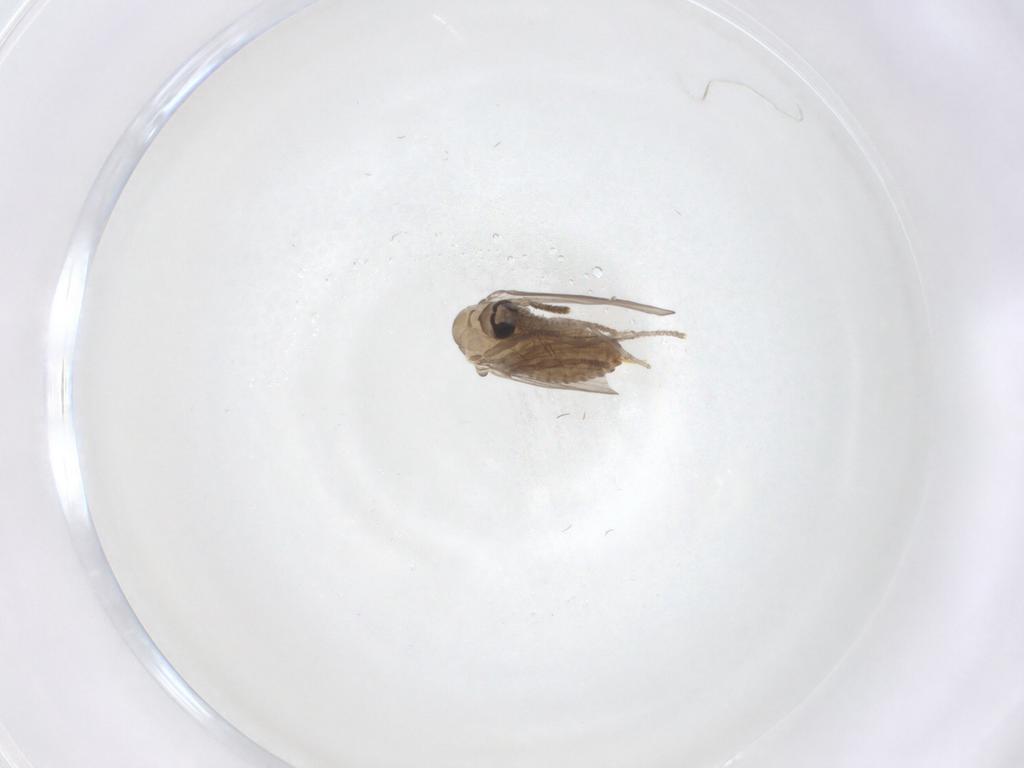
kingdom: Animalia
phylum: Arthropoda
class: Insecta
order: Diptera
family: Psychodidae
